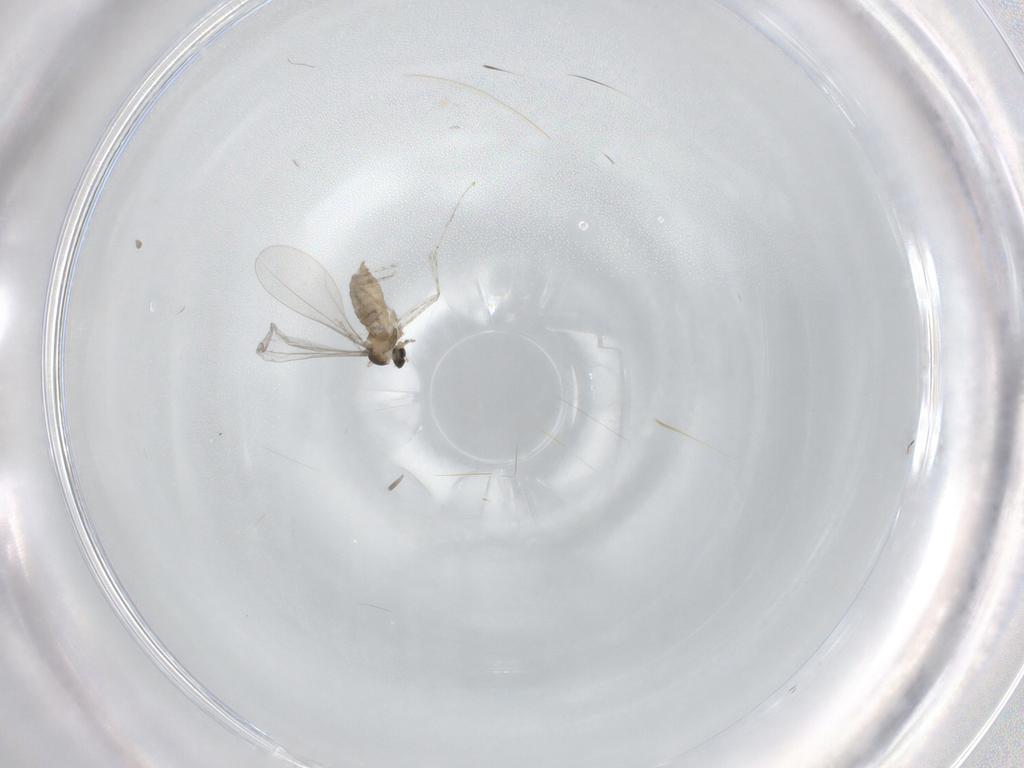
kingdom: Animalia
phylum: Arthropoda
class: Insecta
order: Diptera
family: Cecidomyiidae
